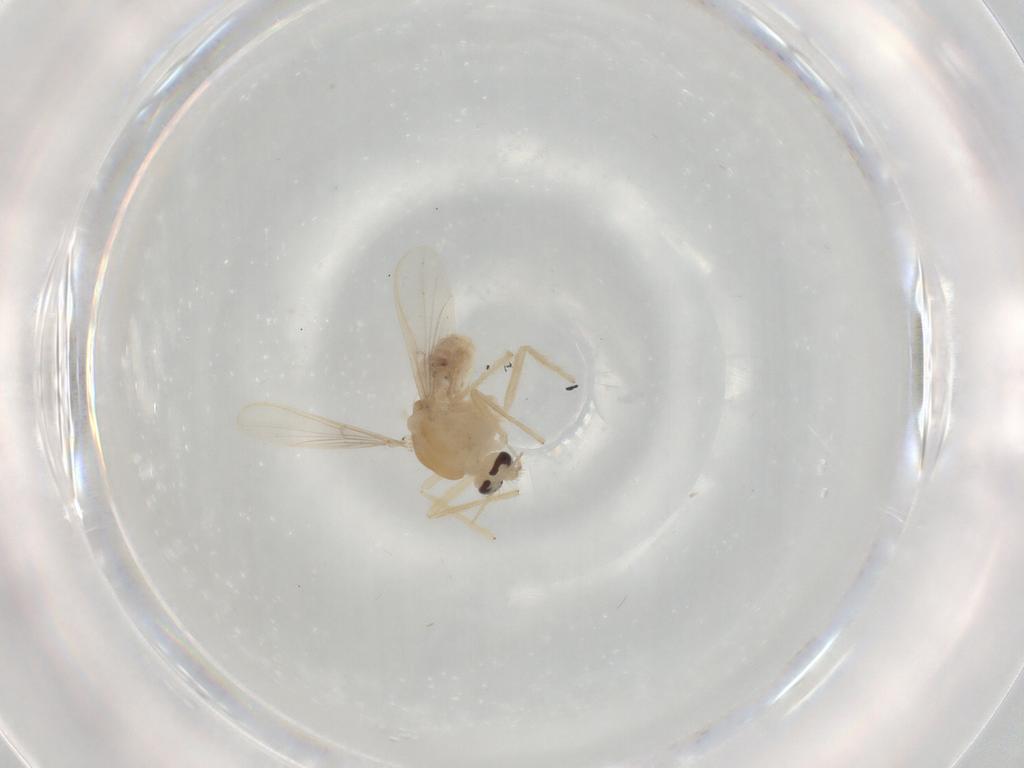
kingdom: Animalia
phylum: Arthropoda
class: Insecta
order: Diptera
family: Chironomidae
